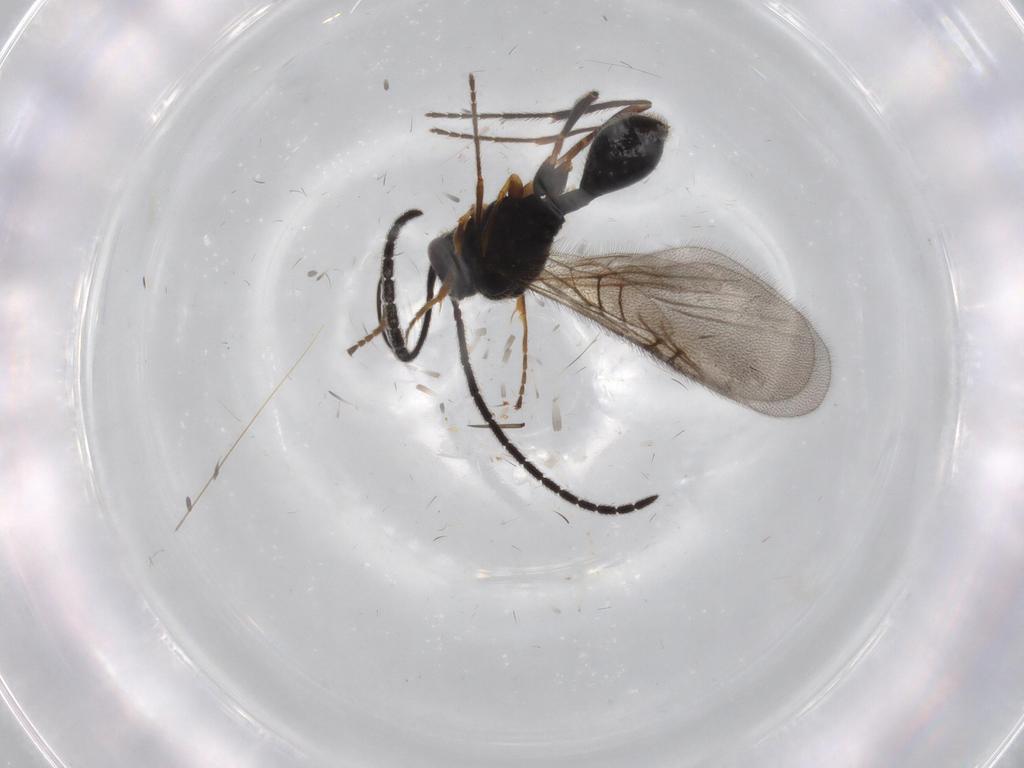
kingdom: Animalia
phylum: Arthropoda
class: Insecta
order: Hymenoptera
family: Diapriidae
